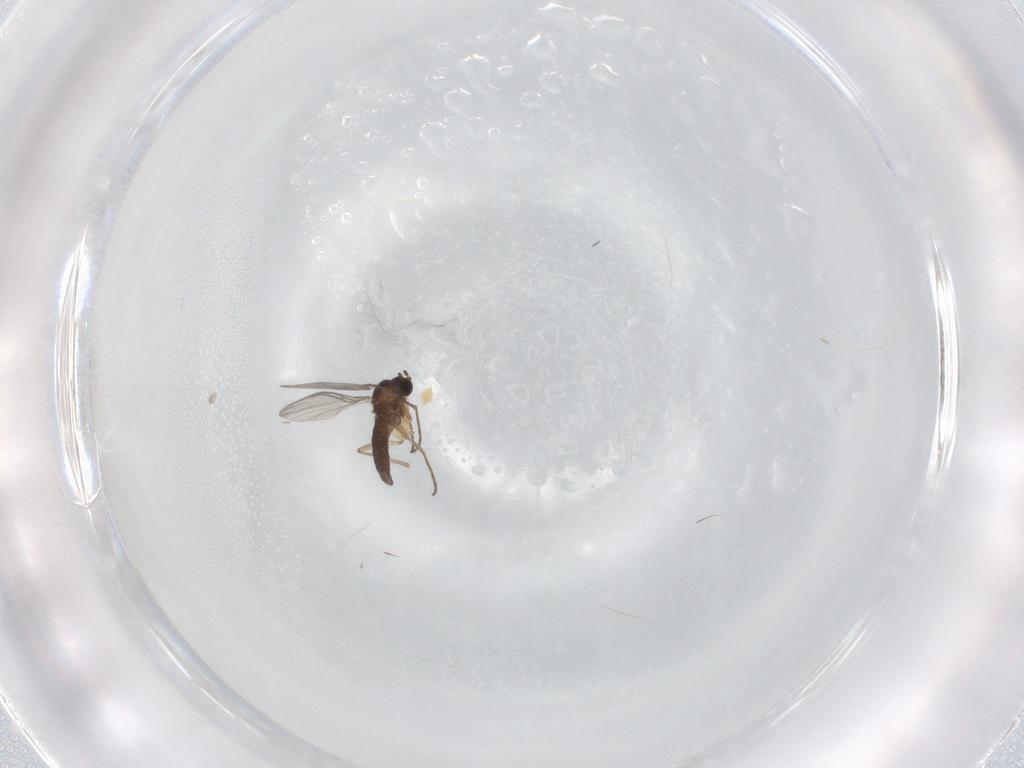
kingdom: Animalia
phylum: Arthropoda
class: Insecta
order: Diptera
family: Sciaridae
